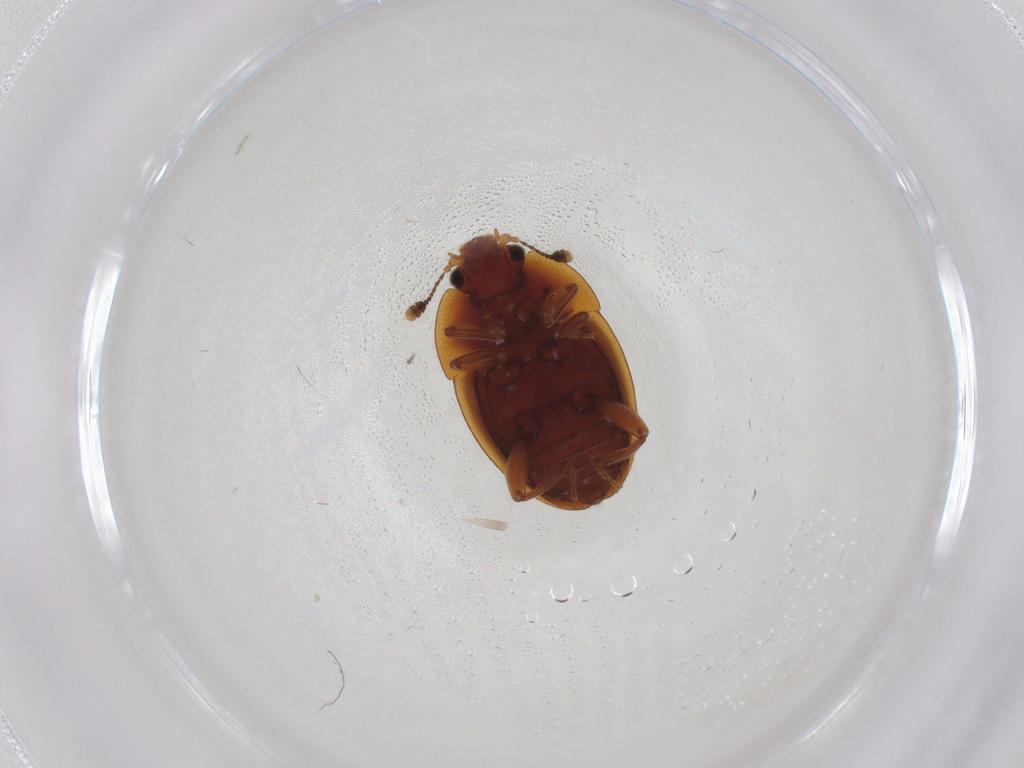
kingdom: Animalia
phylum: Arthropoda
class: Insecta
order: Coleoptera
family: Nitidulidae
